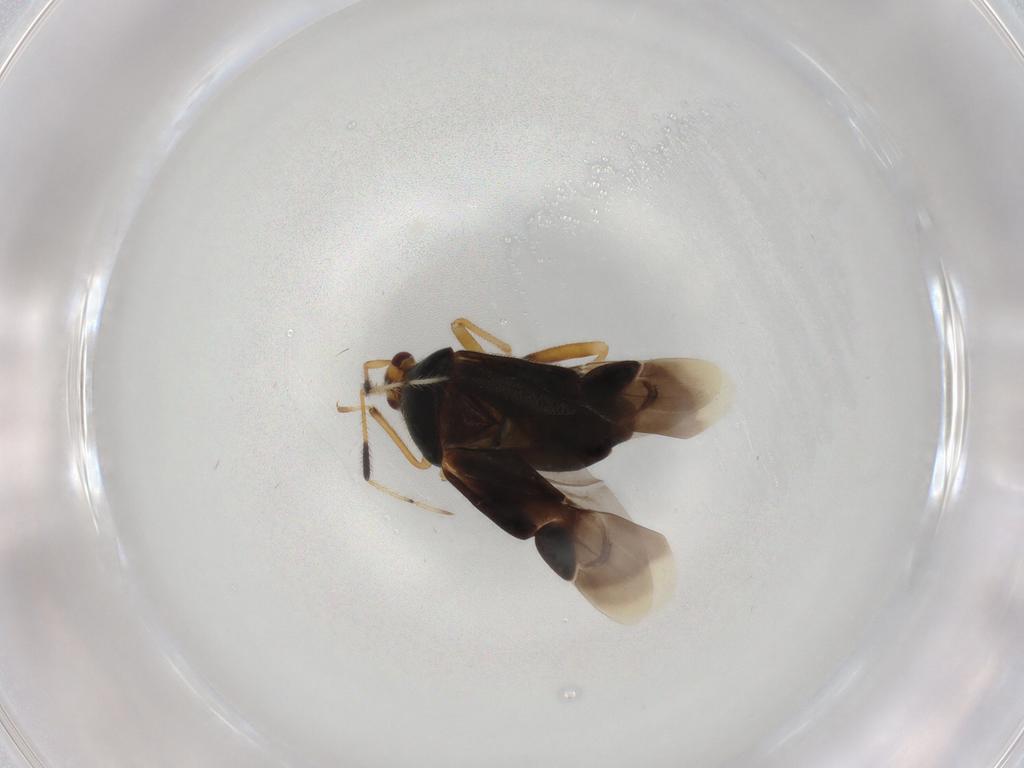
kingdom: Animalia
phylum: Arthropoda
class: Insecta
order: Hemiptera
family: Miridae
